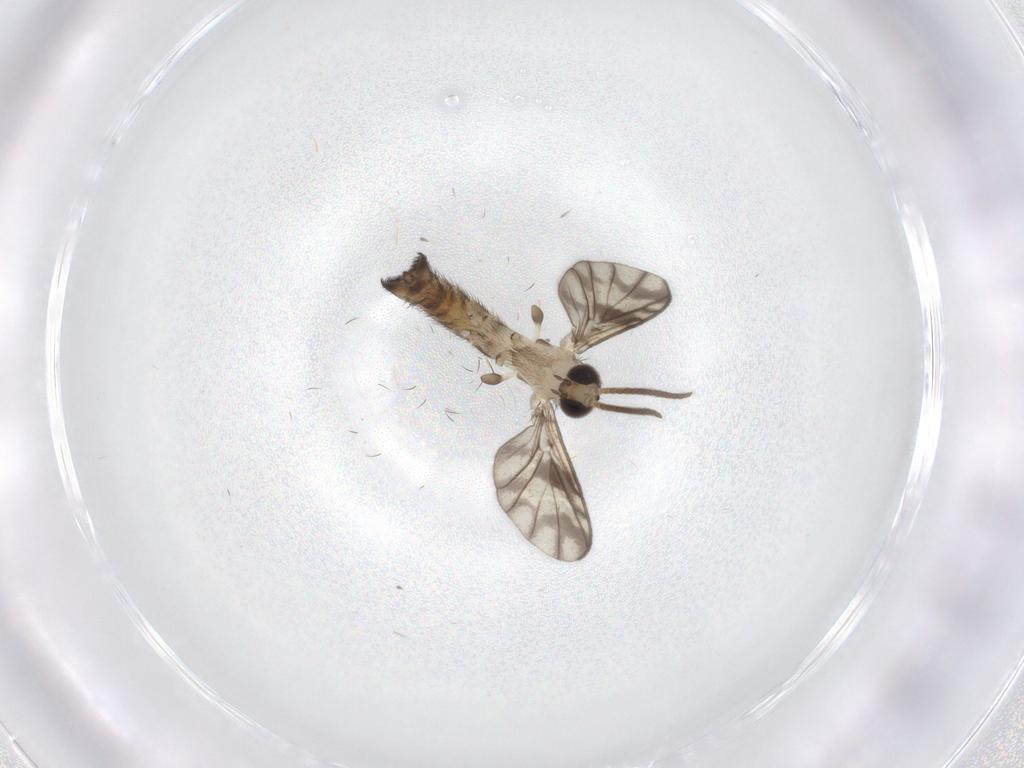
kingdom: Animalia
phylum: Arthropoda
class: Insecta
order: Diptera
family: Keroplatidae
